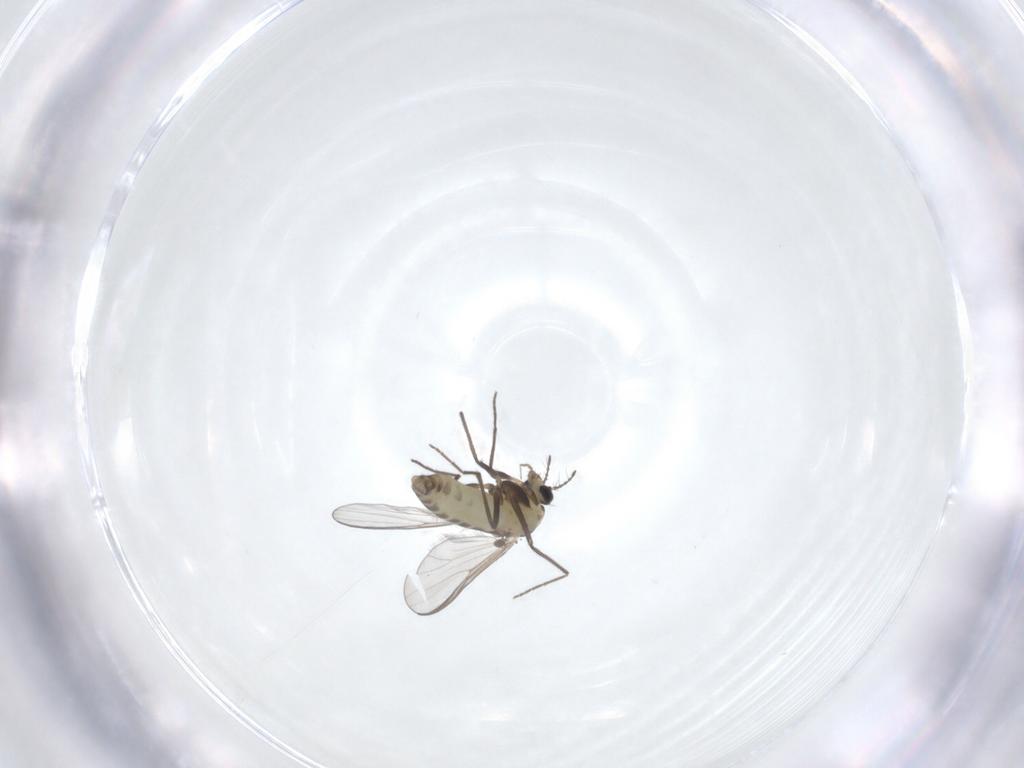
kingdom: Animalia
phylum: Arthropoda
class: Insecta
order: Diptera
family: Chironomidae
